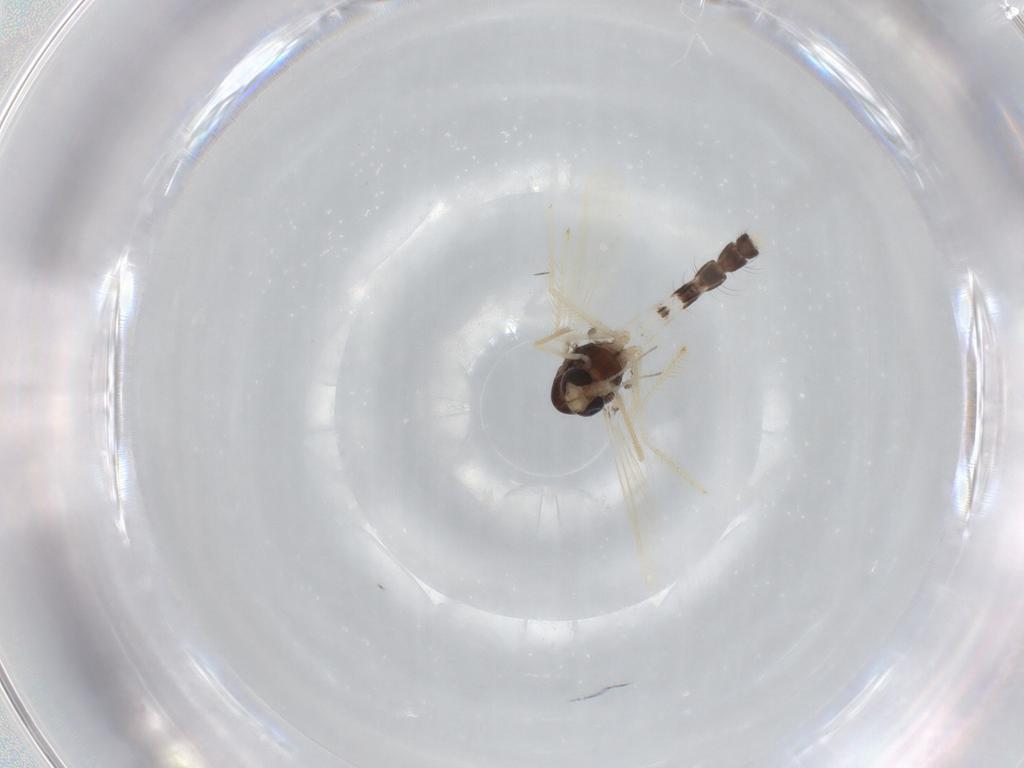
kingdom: Animalia
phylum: Arthropoda
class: Insecta
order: Diptera
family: Chironomidae
